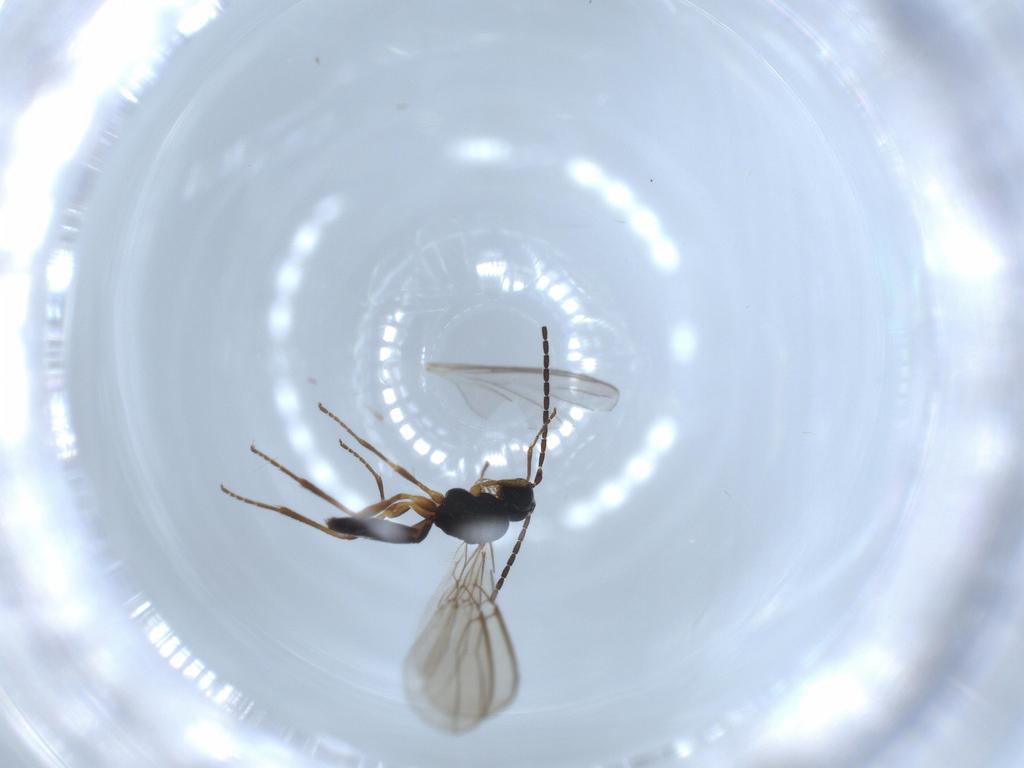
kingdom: Animalia
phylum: Arthropoda
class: Insecta
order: Hymenoptera
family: Braconidae
